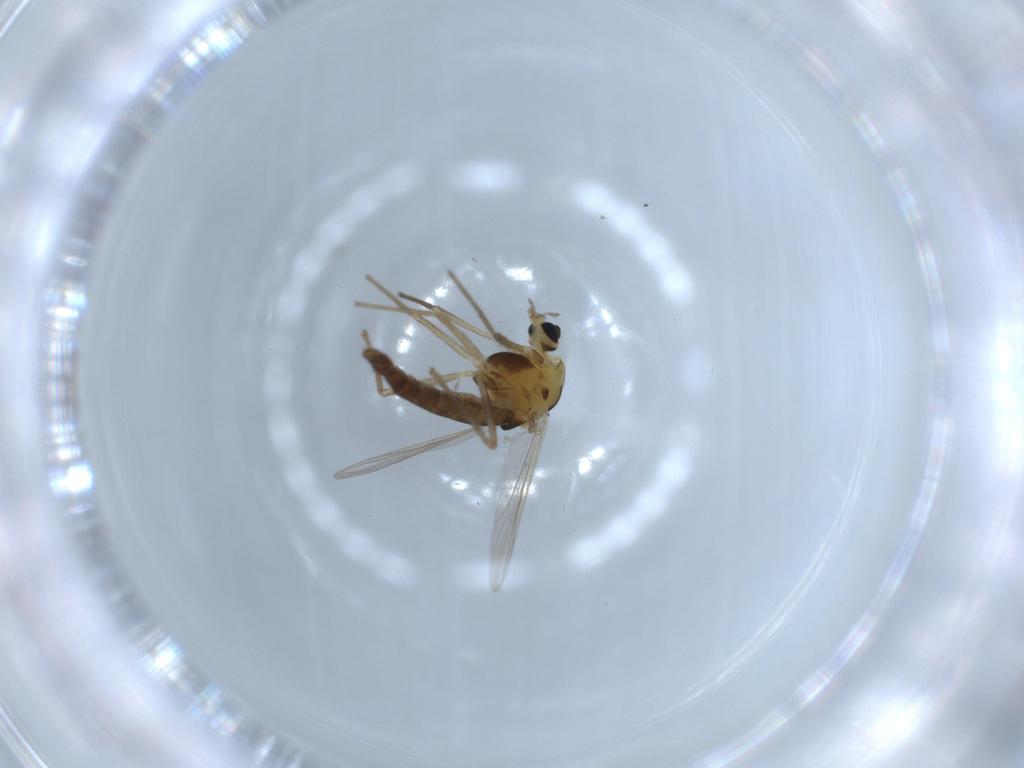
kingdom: Animalia
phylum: Arthropoda
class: Insecta
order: Diptera
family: Chironomidae
